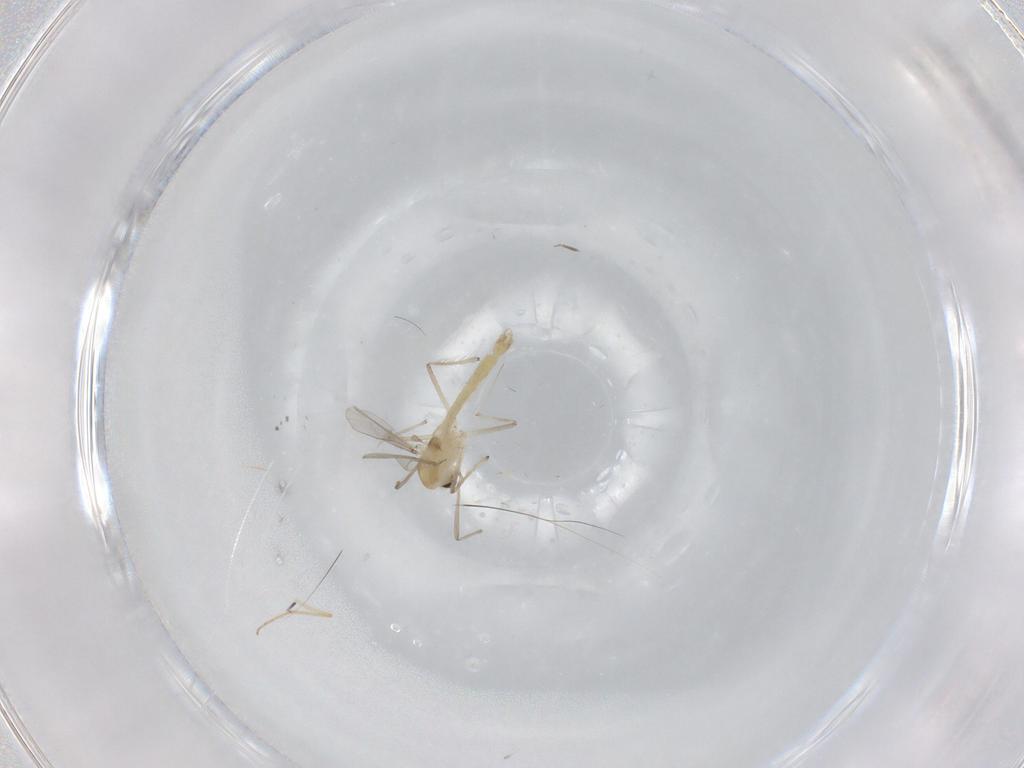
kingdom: Animalia
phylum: Arthropoda
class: Insecta
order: Diptera
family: Chironomidae
